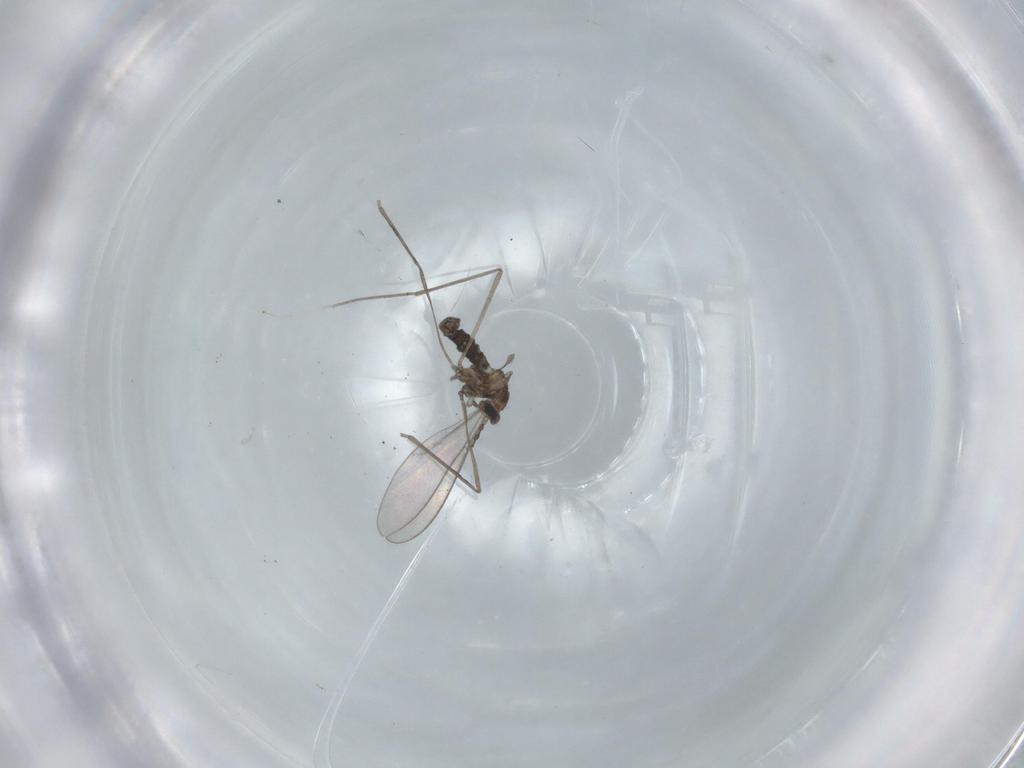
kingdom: Animalia
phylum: Arthropoda
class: Insecta
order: Diptera
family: Cecidomyiidae
